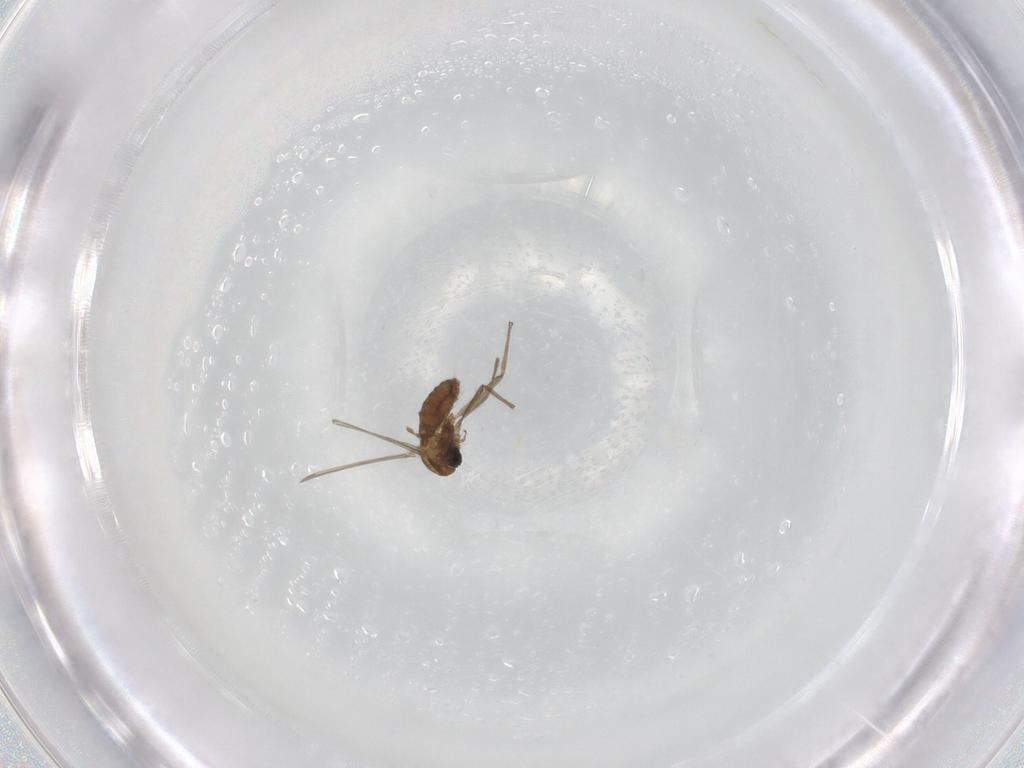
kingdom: Animalia
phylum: Arthropoda
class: Insecta
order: Diptera
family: Chironomidae
